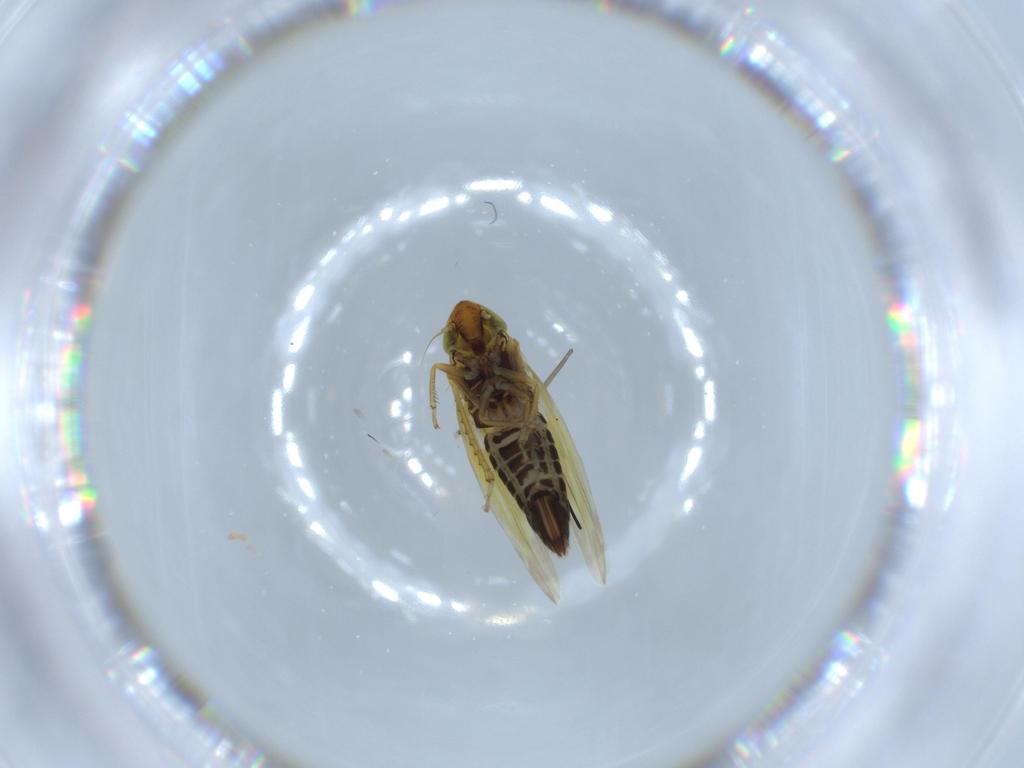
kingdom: Animalia
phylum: Arthropoda
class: Insecta
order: Hemiptera
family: Cicadellidae
